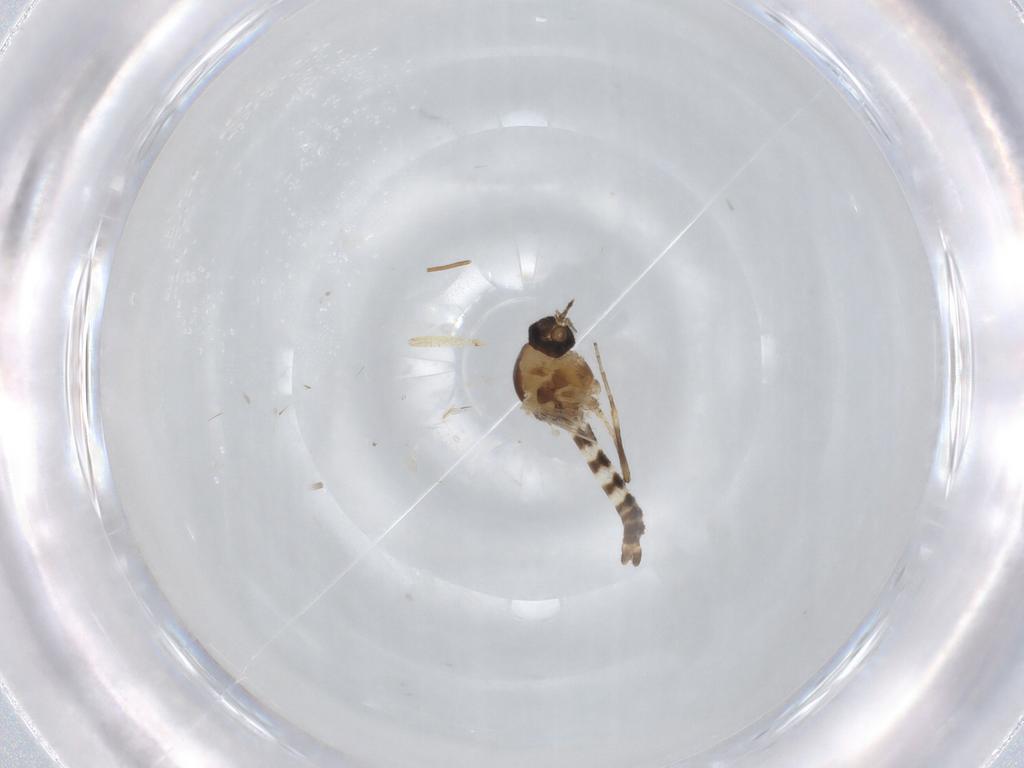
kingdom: Animalia
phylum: Arthropoda
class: Insecta
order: Diptera
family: Ceratopogonidae
